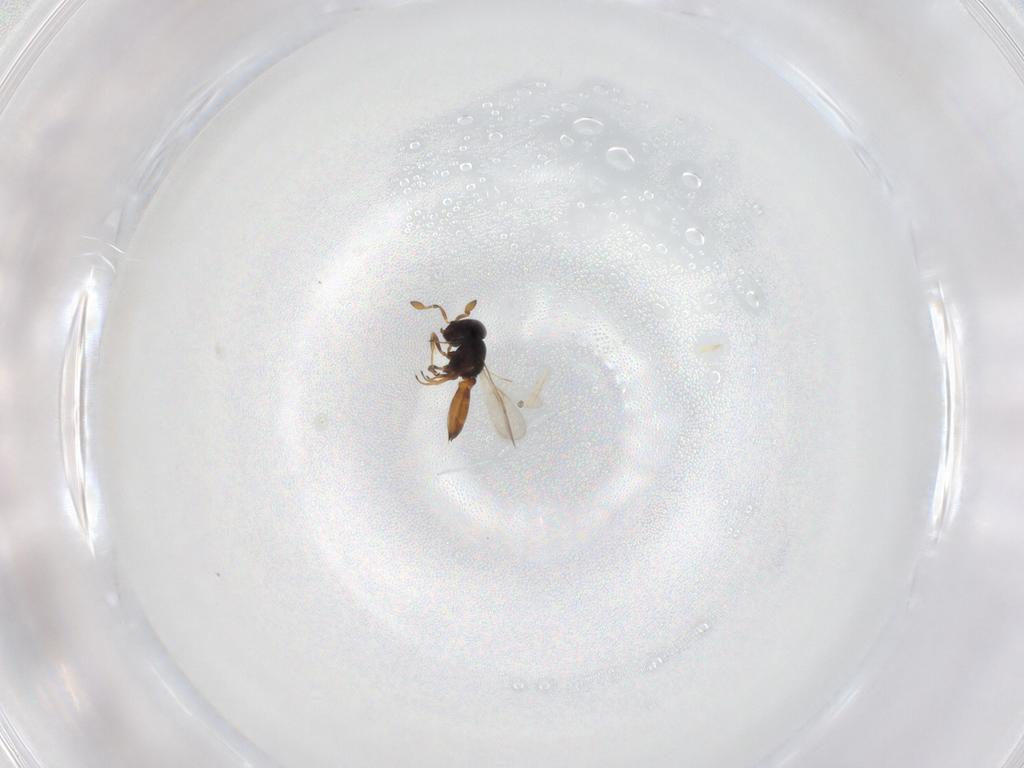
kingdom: Animalia
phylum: Arthropoda
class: Insecta
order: Hymenoptera
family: Scelionidae
